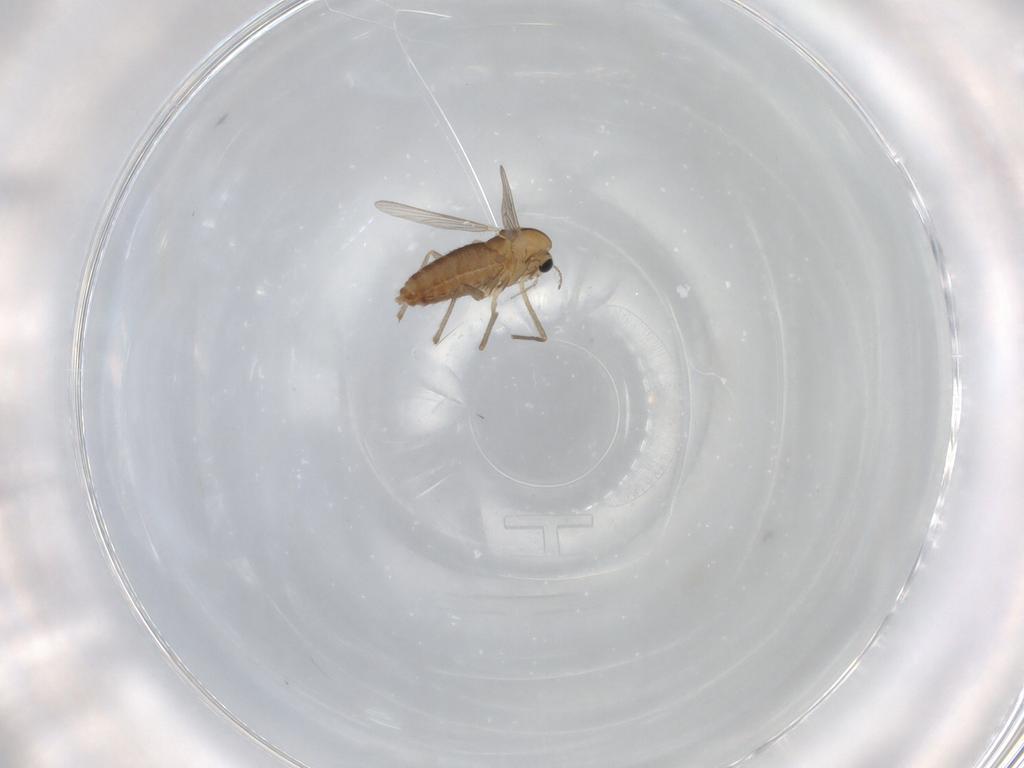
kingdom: Animalia
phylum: Arthropoda
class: Insecta
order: Diptera
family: Chironomidae
